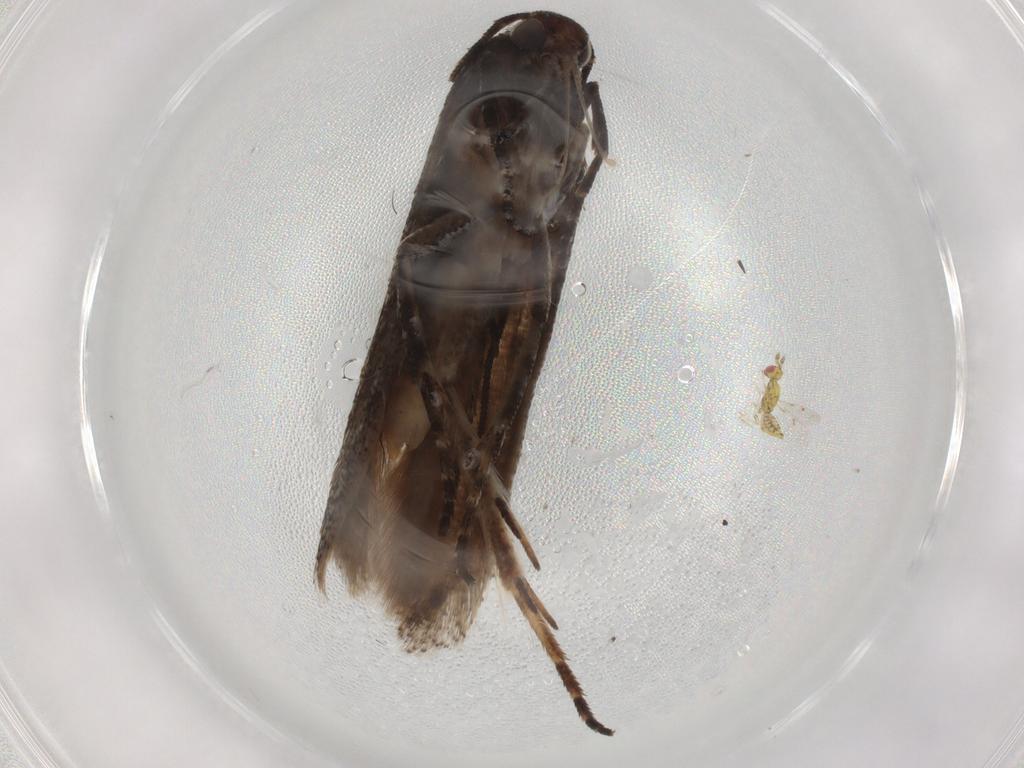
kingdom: Animalia
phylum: Arthropoda
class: Insecta
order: Lepidoptera
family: Gelechiidae
